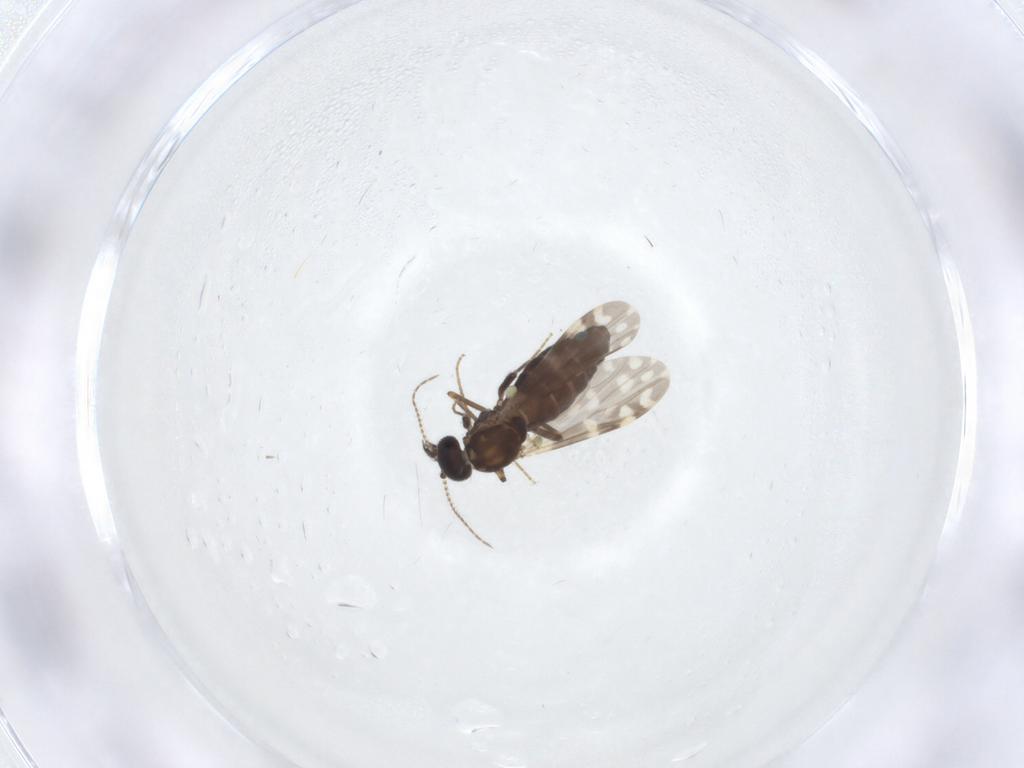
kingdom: Animalia
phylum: Arthropoda
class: Insecta
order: Diptera
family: Ceratopogonidae
